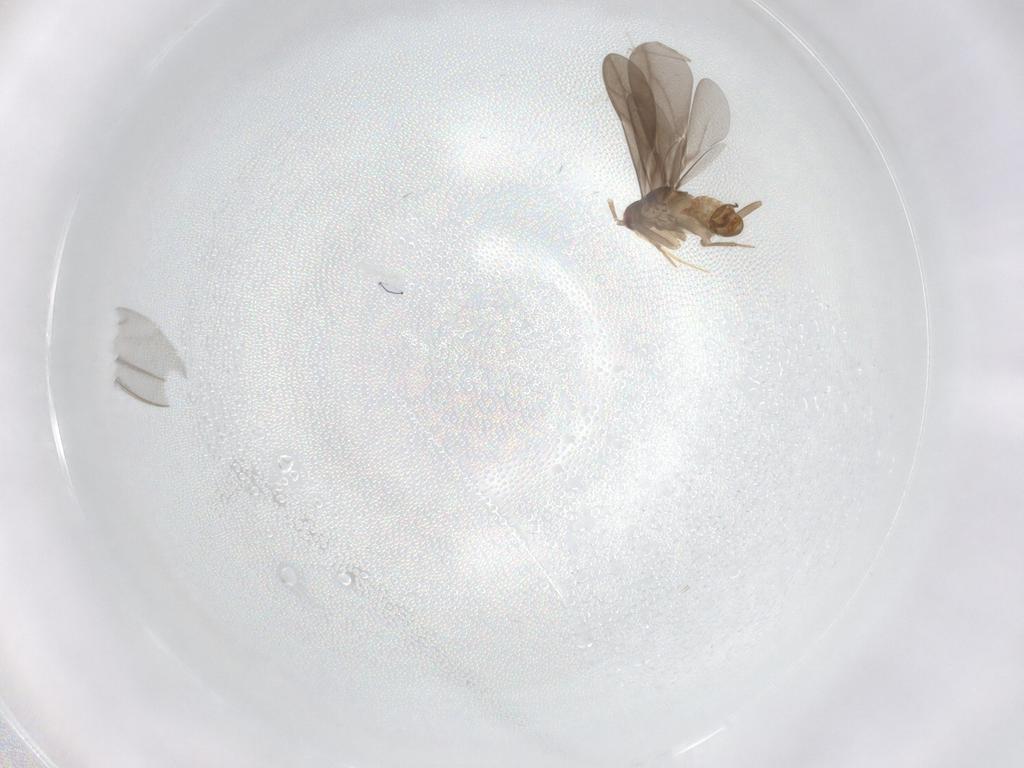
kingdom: Animalia
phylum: Arthropoda
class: Insecta
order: Hemiptera
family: Ceratocombidae
